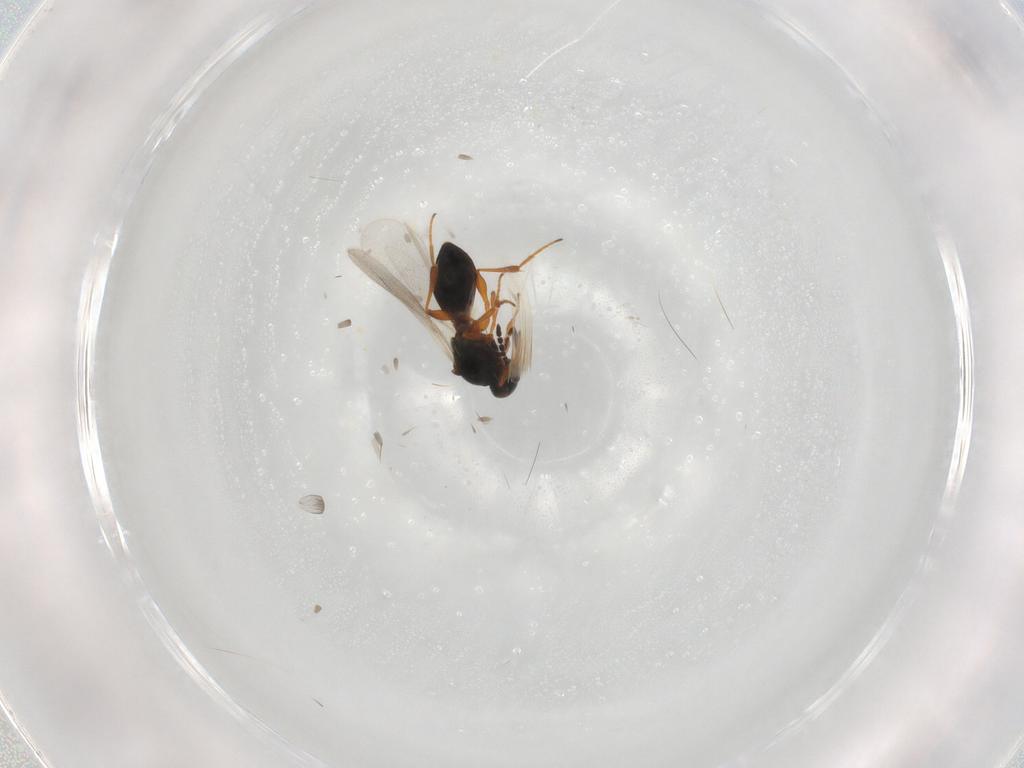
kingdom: Animalia
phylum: Arthropoda
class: Insecta
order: Hymenoptera
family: Platygastridae
